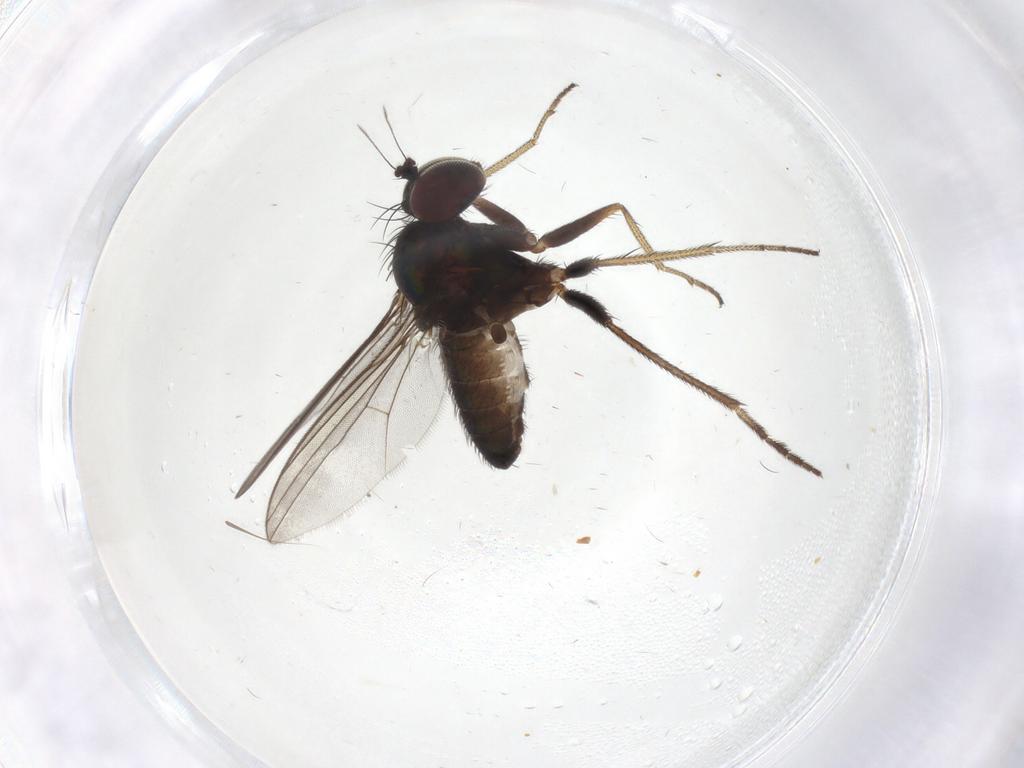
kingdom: Animalia
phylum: Arthropoda
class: Insecta
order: Diptera
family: Dolichopodidae
